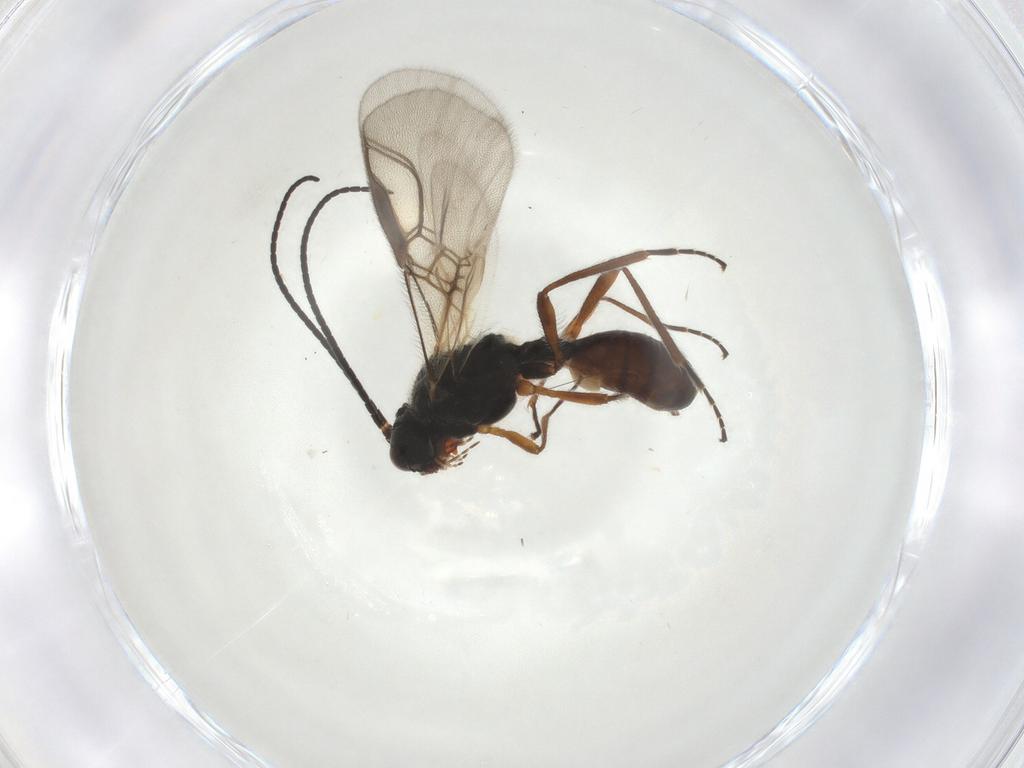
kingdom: Animalia
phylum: Arthropoda
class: Insecta
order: Hymenoptera
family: Braconidae
